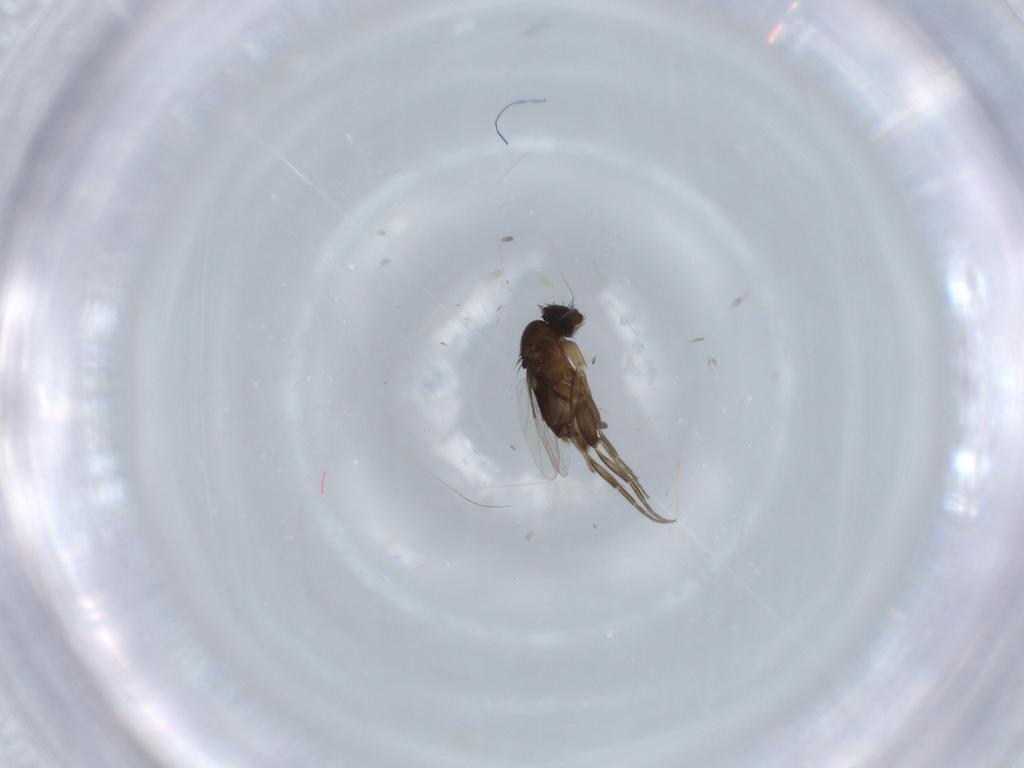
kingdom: Animalia
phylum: Arthropoda
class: Insecta
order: Diptera
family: Phoridae
